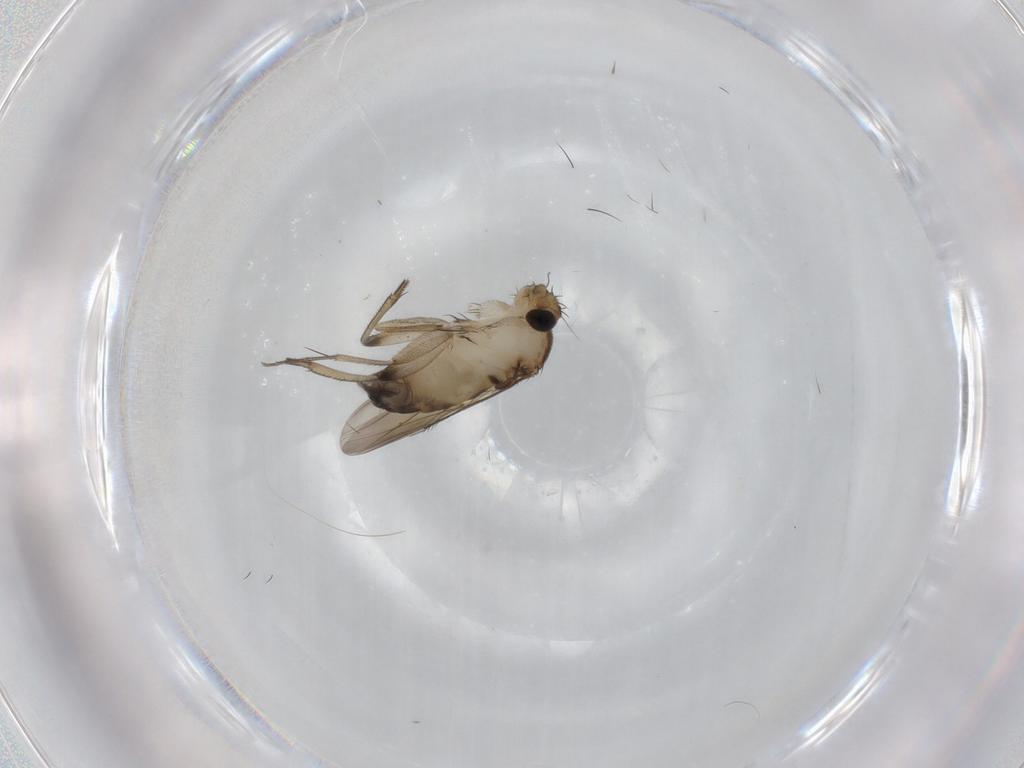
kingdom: Animalia
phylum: Arthropoda
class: Insecta
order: Diptera
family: Phoridae
